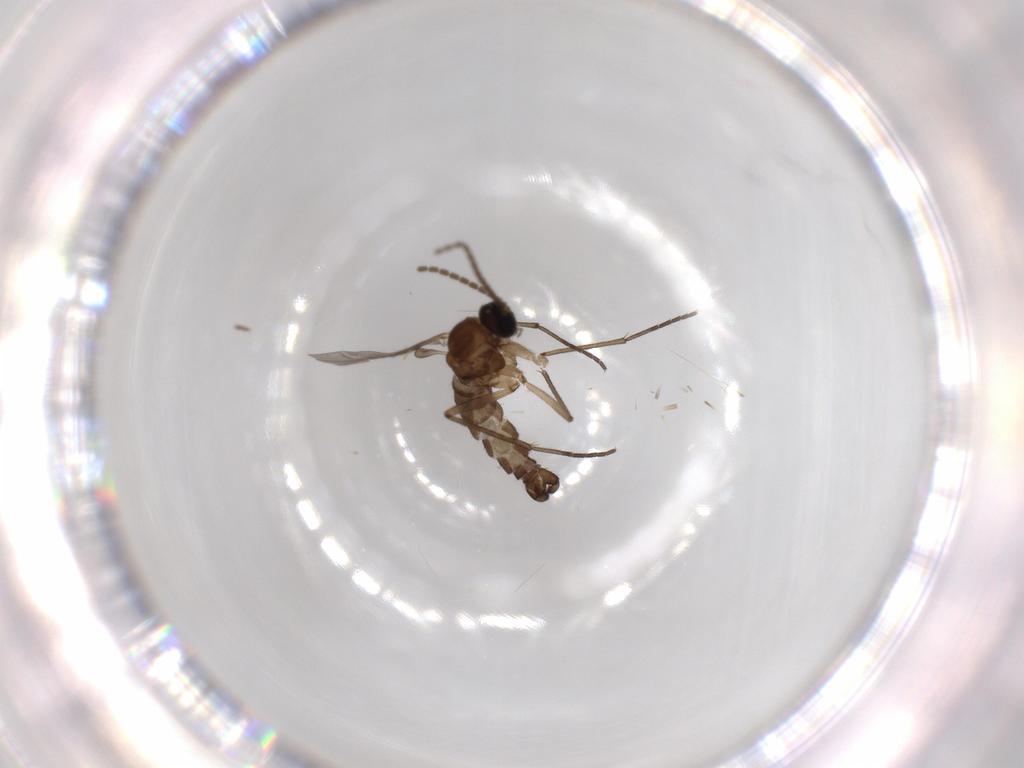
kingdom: Animalia
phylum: Arthropoda
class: Insecta
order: Diptera
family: Sciaridae
